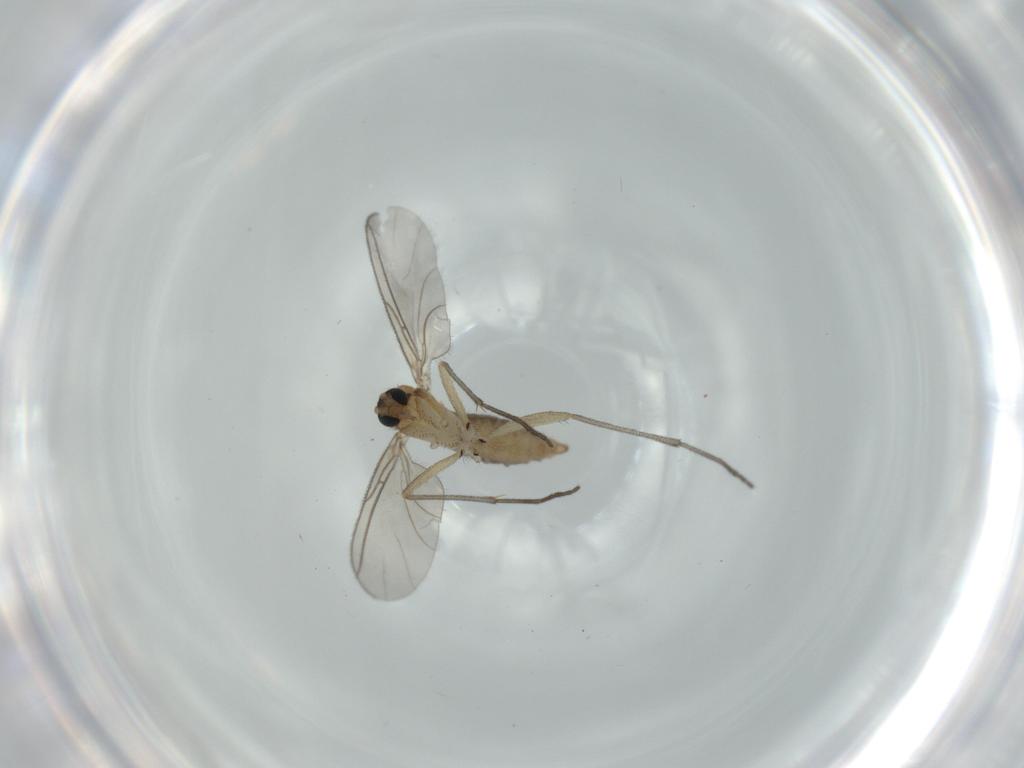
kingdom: Animalia
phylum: Arthropoda
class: Insecta
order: Diptera
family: Sciaridae
